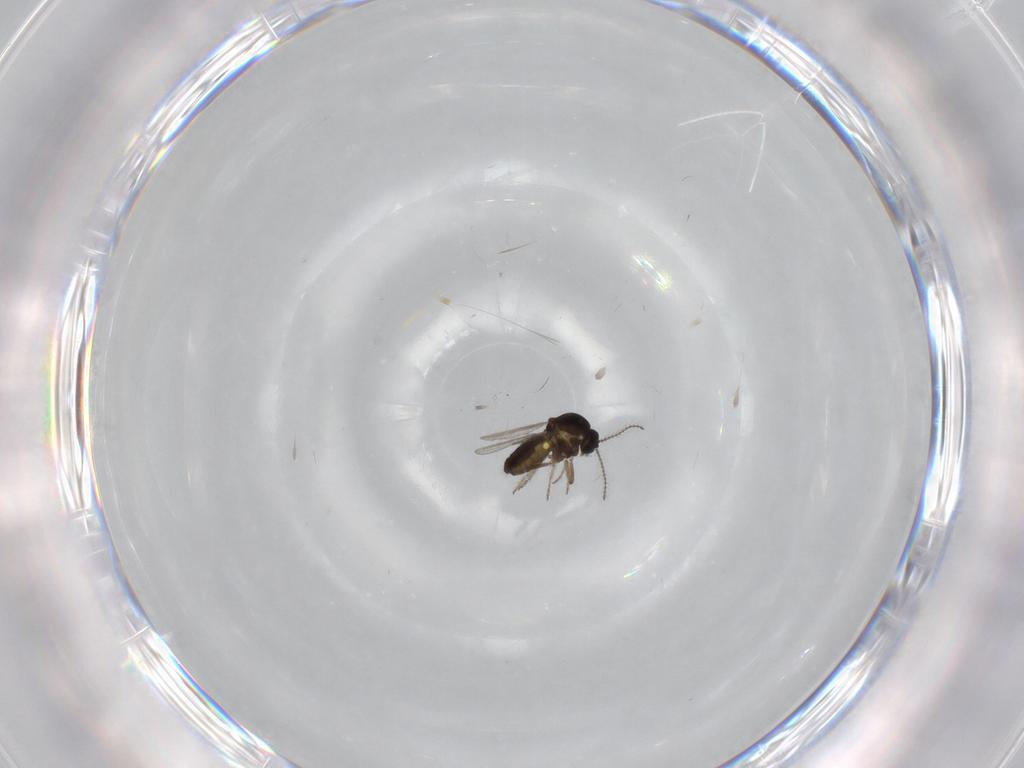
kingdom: Animalia
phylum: Arthropoda
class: Insecta
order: Diptera
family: Ceratopogonidae
